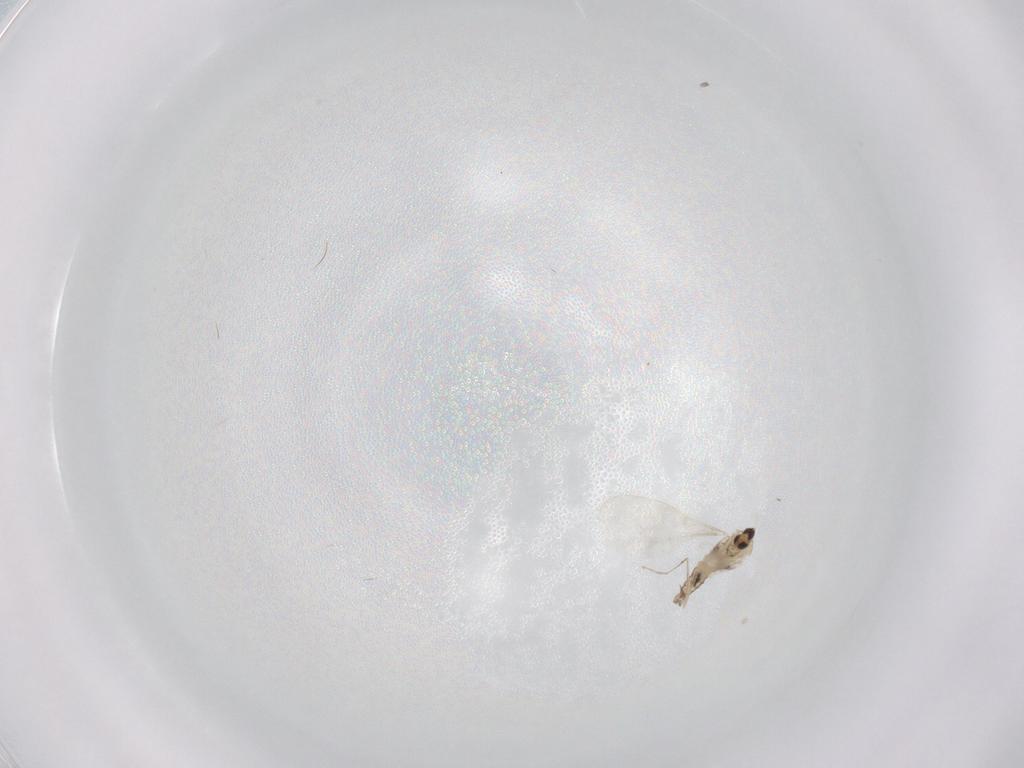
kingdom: Animalia
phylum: Arthropoda
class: Insecta
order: Diptera
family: Cecidomyiidae
